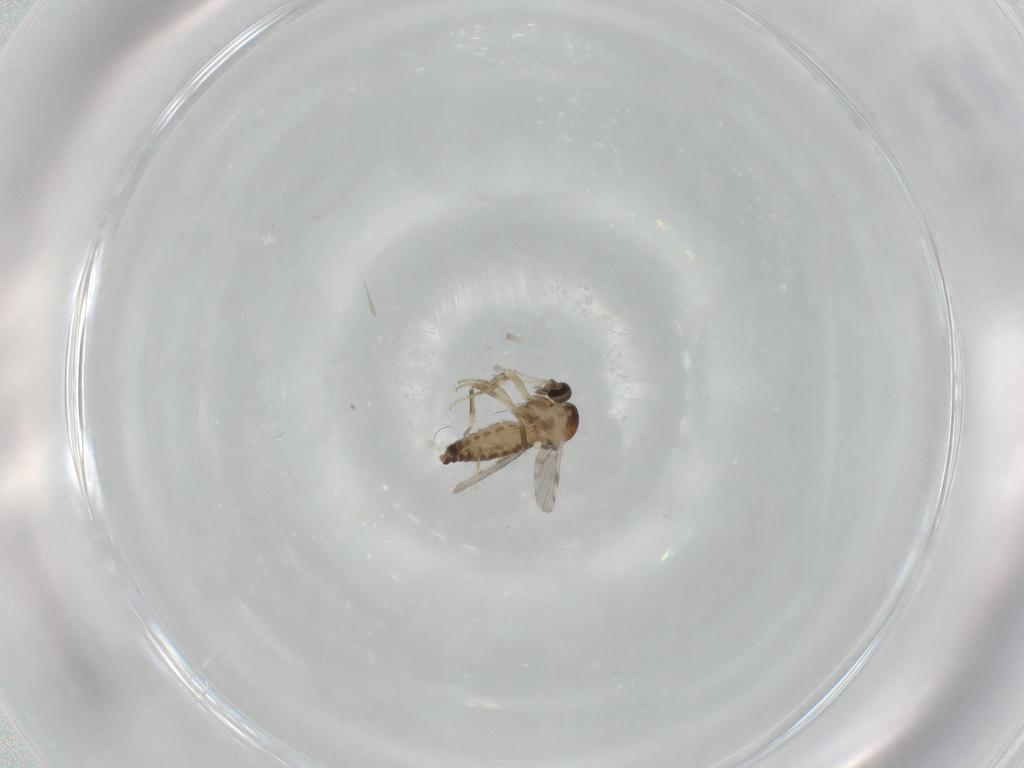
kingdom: Animalia
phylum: Arthropoda
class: Insecta
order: Diptera
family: Ceratopogonidae
